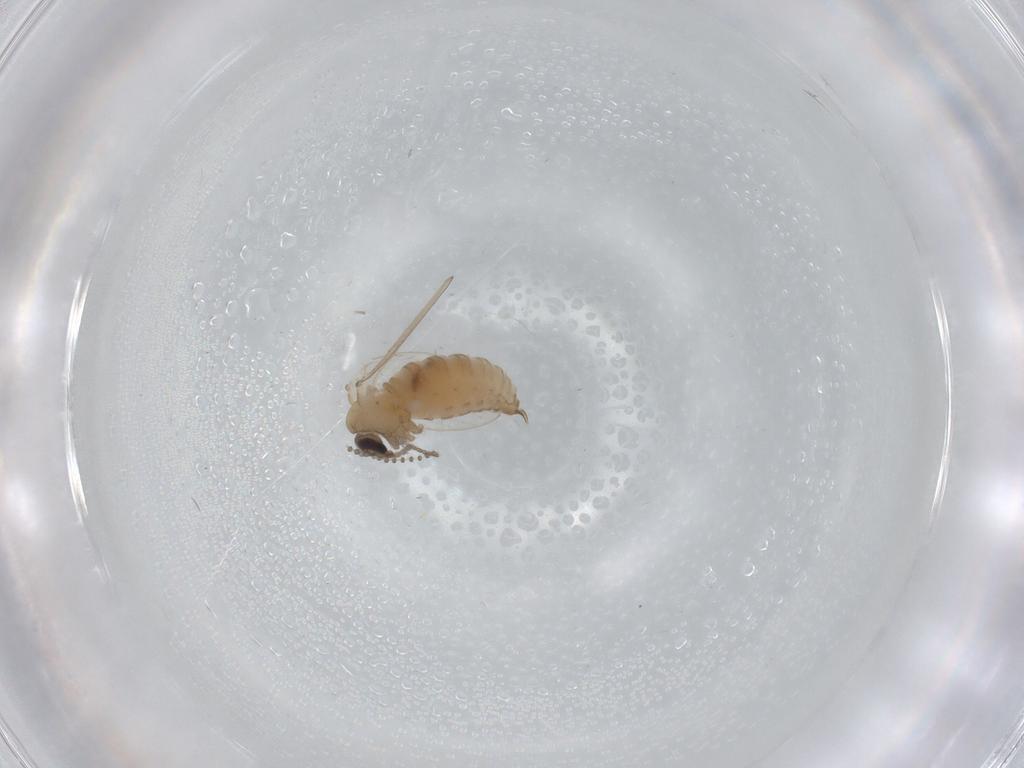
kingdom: Animalia
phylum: Arthropoda
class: Insecta
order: Diptera
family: Psychodidae
